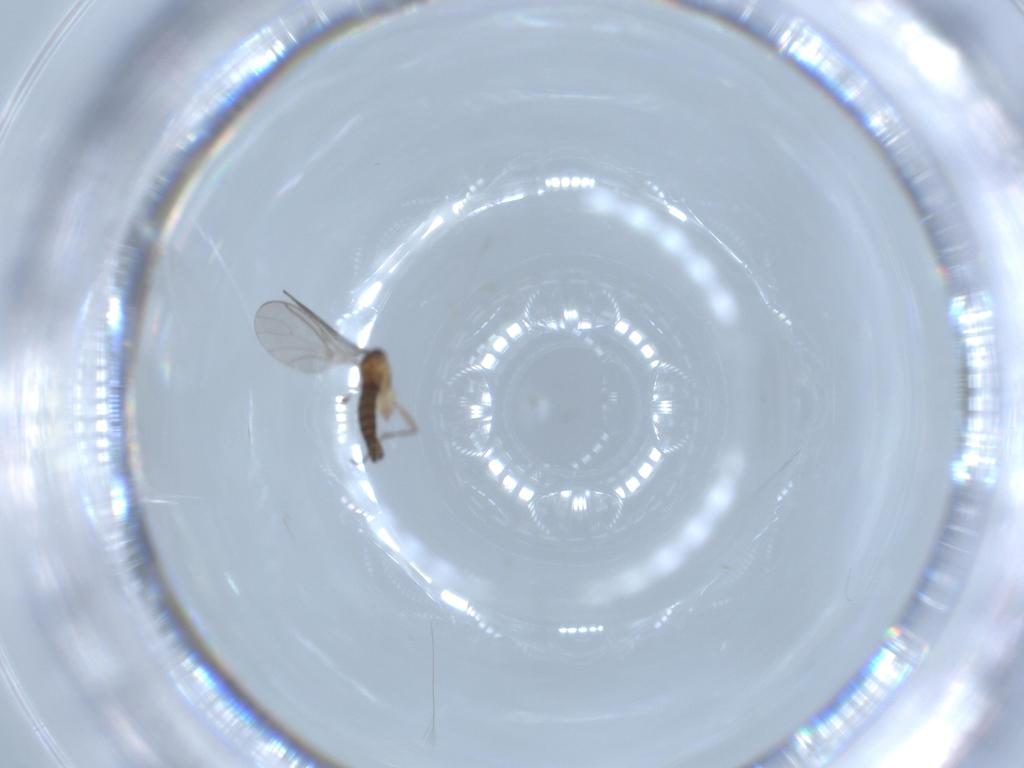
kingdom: Animalia
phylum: Arthropoda
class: Insecta
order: Diptera
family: Sciaridae
